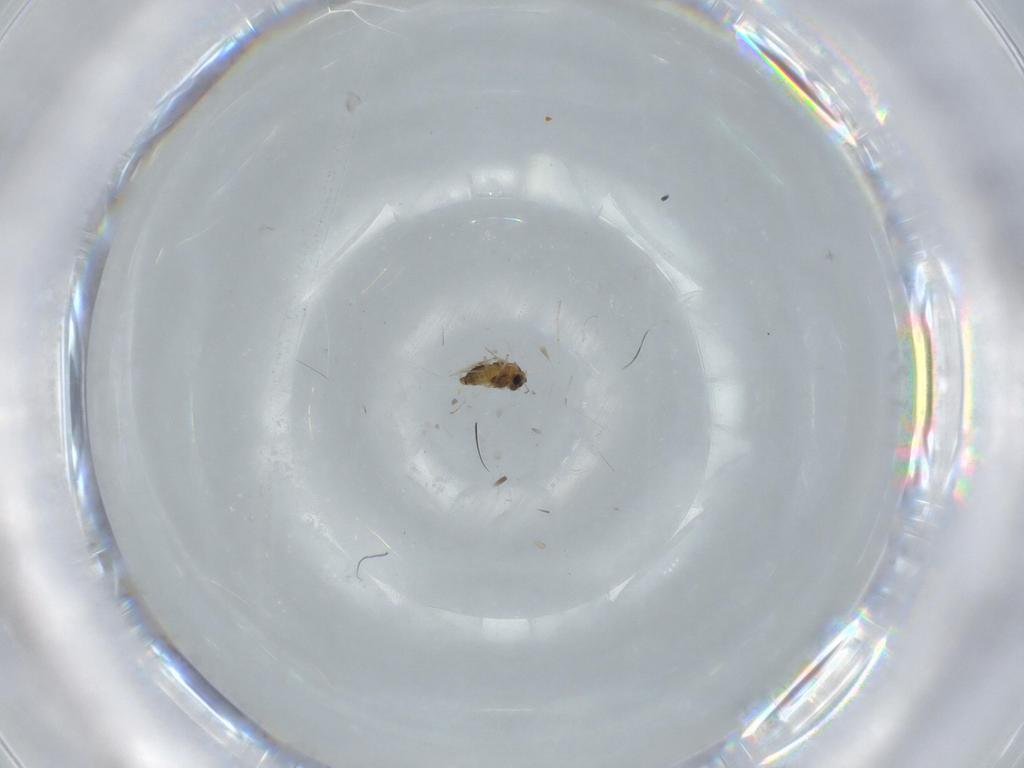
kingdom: Animalia
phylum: Arthropoda
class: Insecta
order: Diptera
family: Chironomidae
